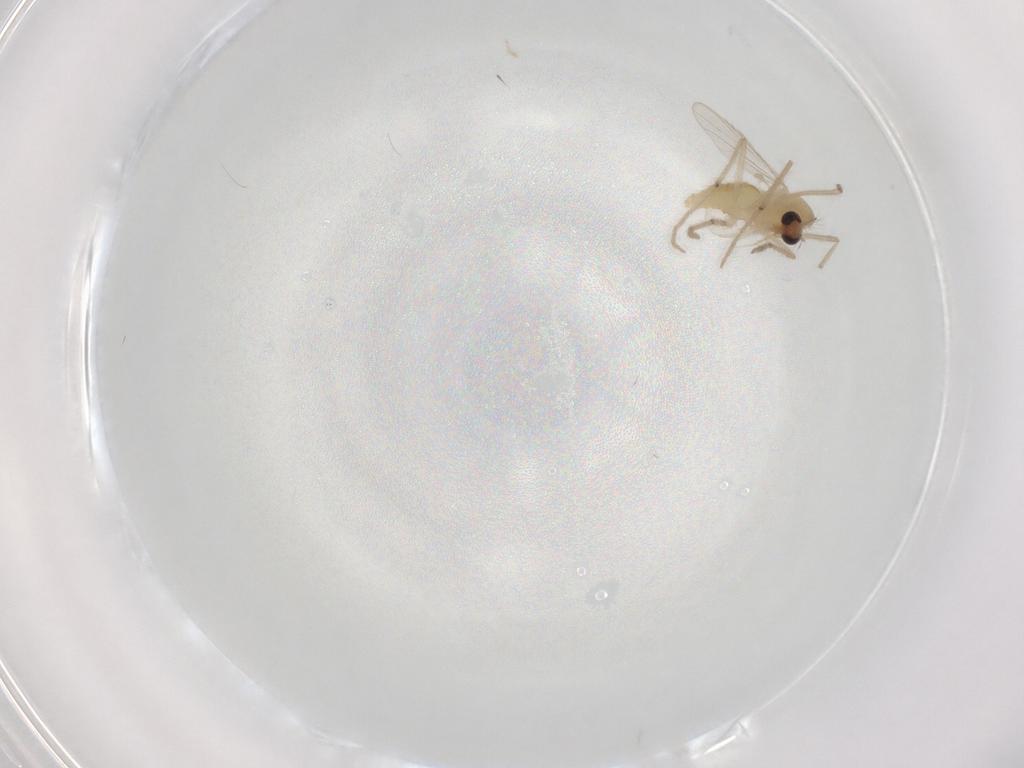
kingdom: Animalia
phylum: Arthropoda
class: Insecta
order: Diptera
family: Chironomidae
